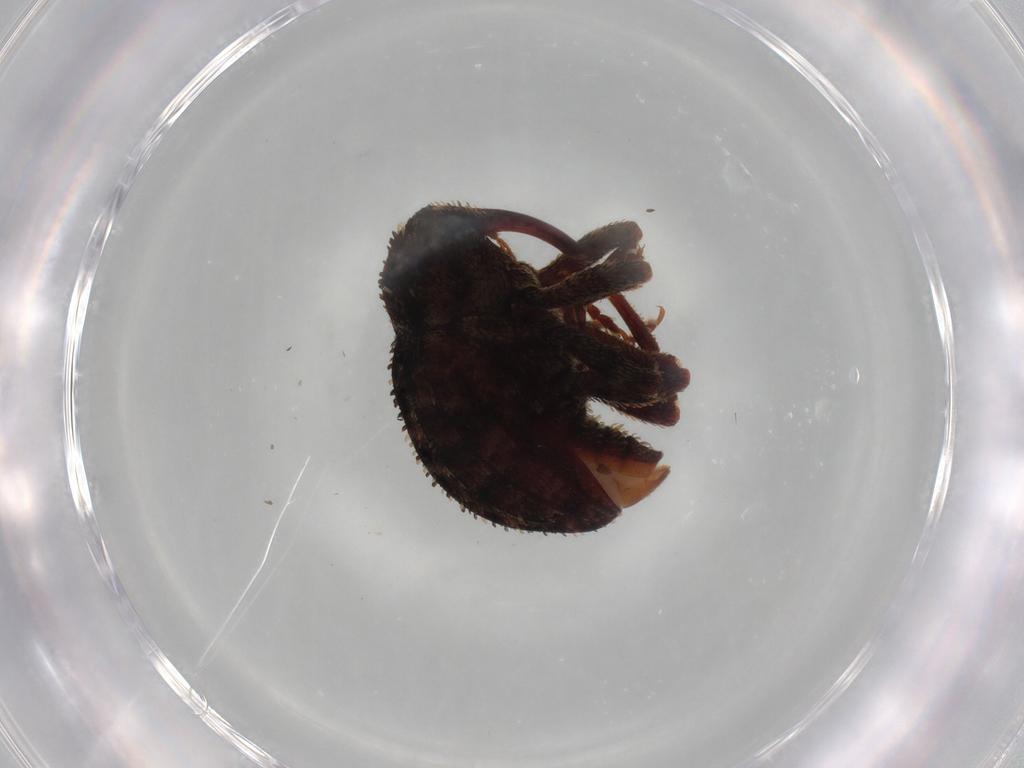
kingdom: Animalia
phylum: Arthropoda
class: Insecta
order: Coleoptera
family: Curculionidae
